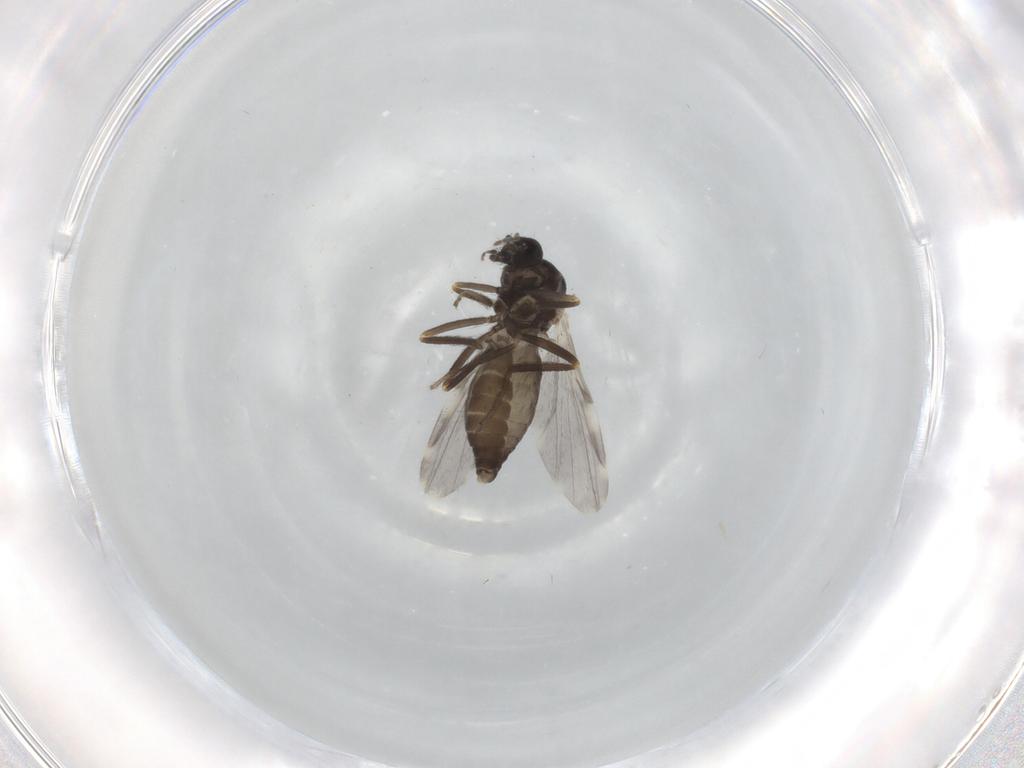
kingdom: Animalia
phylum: Arthropoda
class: Insecta
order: Diptera
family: Ceratopogonidae
